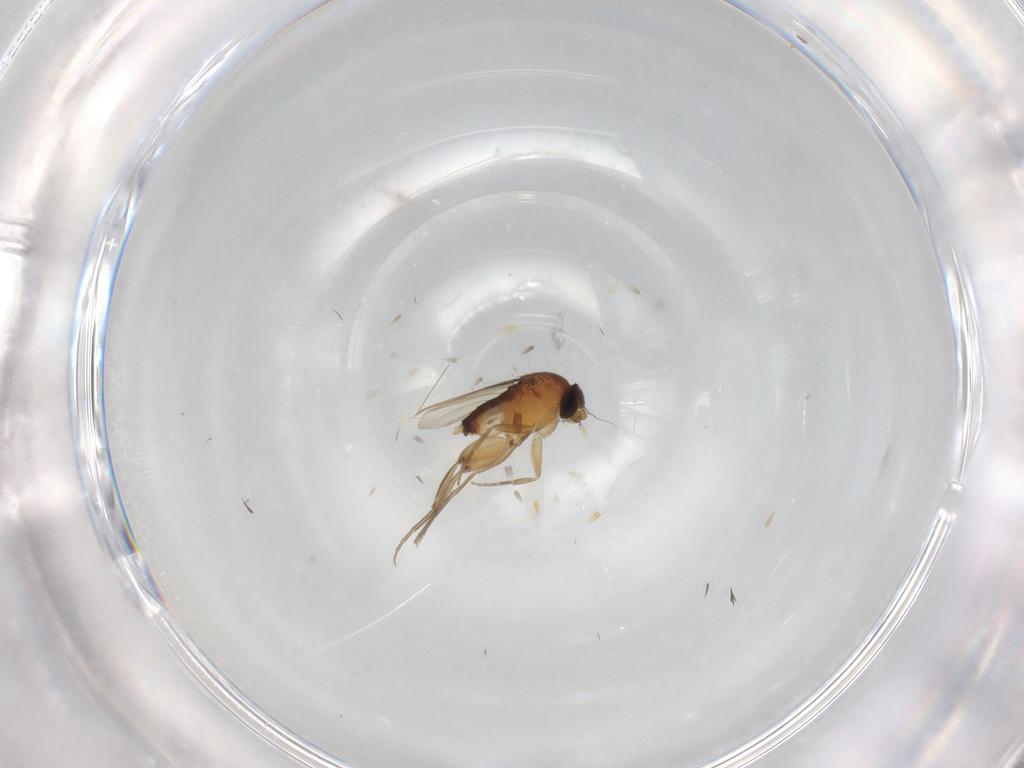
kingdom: Animalia
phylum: Arthropoda
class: Insecta
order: Diptera
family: Phoridae
